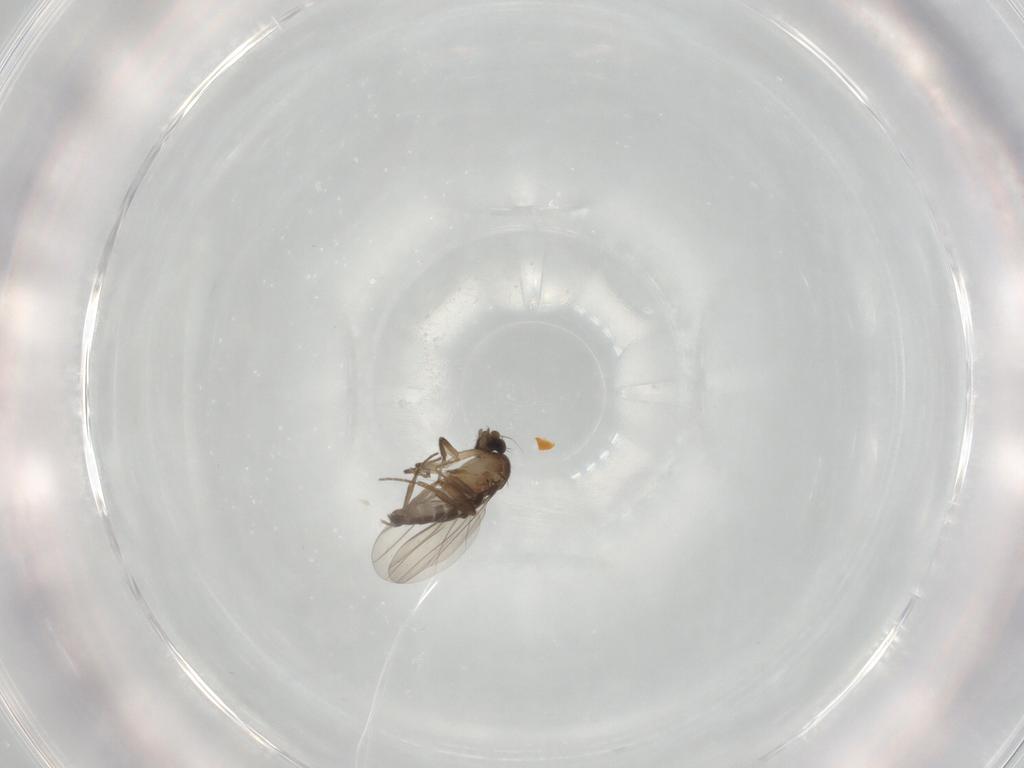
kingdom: Animalia
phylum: Arthropoda
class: Insecta
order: Diptera
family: Phoridae
